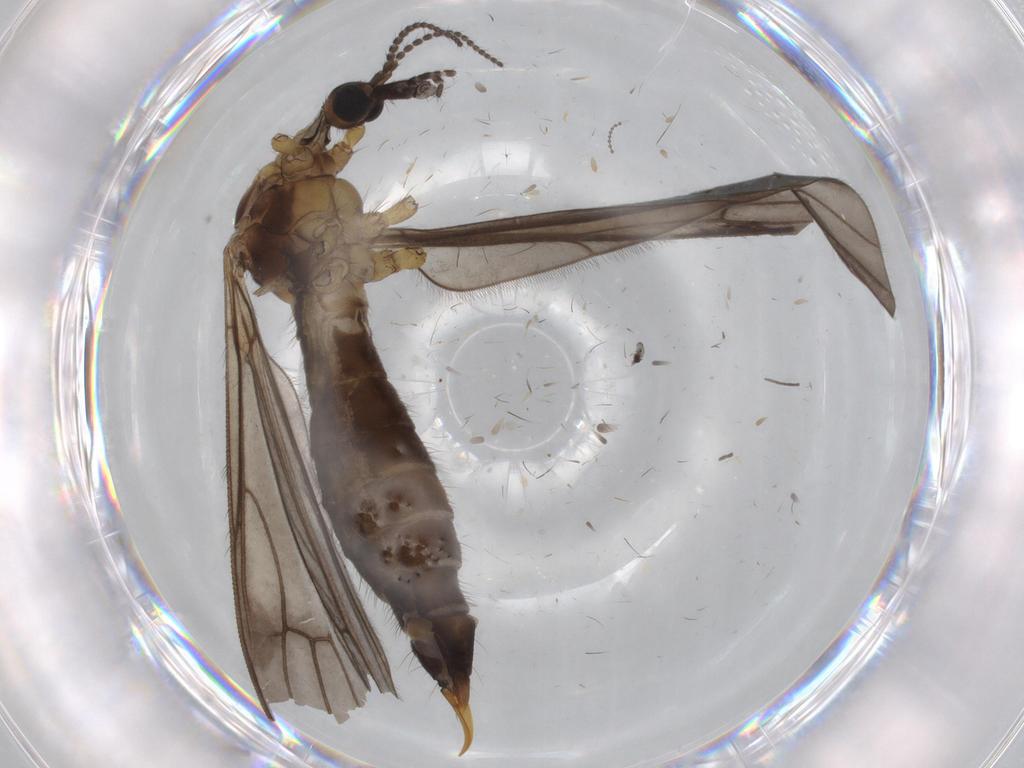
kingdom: Animalia
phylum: Arthropoda
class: Insecta
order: Diptera
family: Limoniidae
